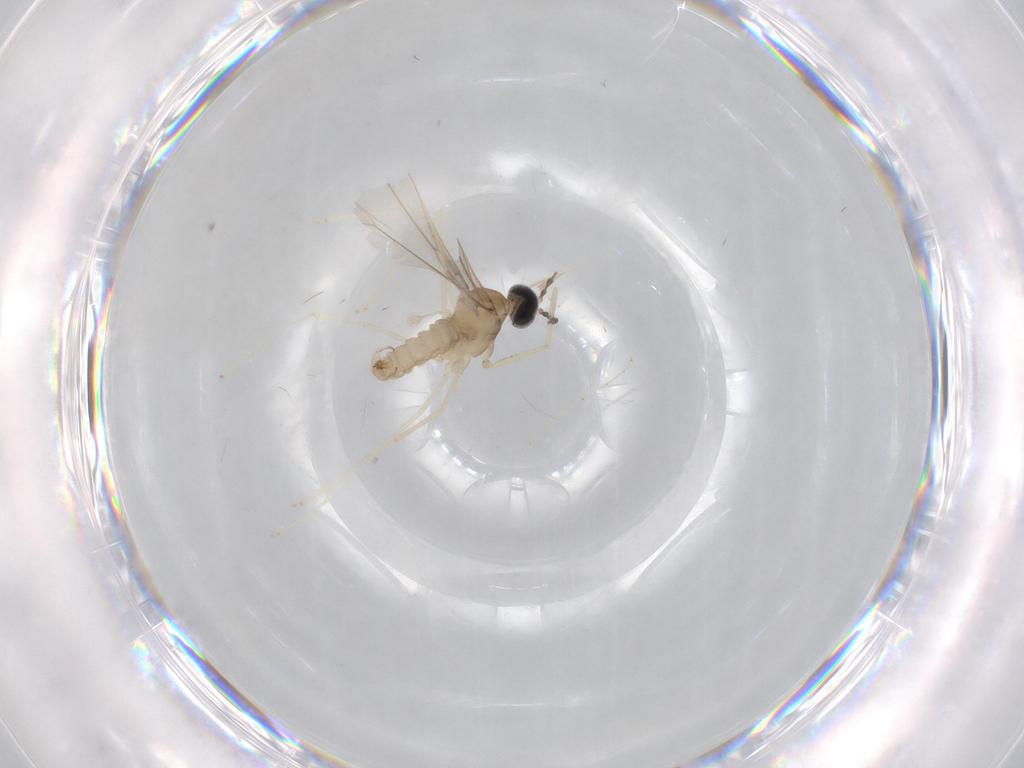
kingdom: Animalia
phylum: Arthropoda
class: Insecta
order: Diptera
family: Cecidomyiidae
